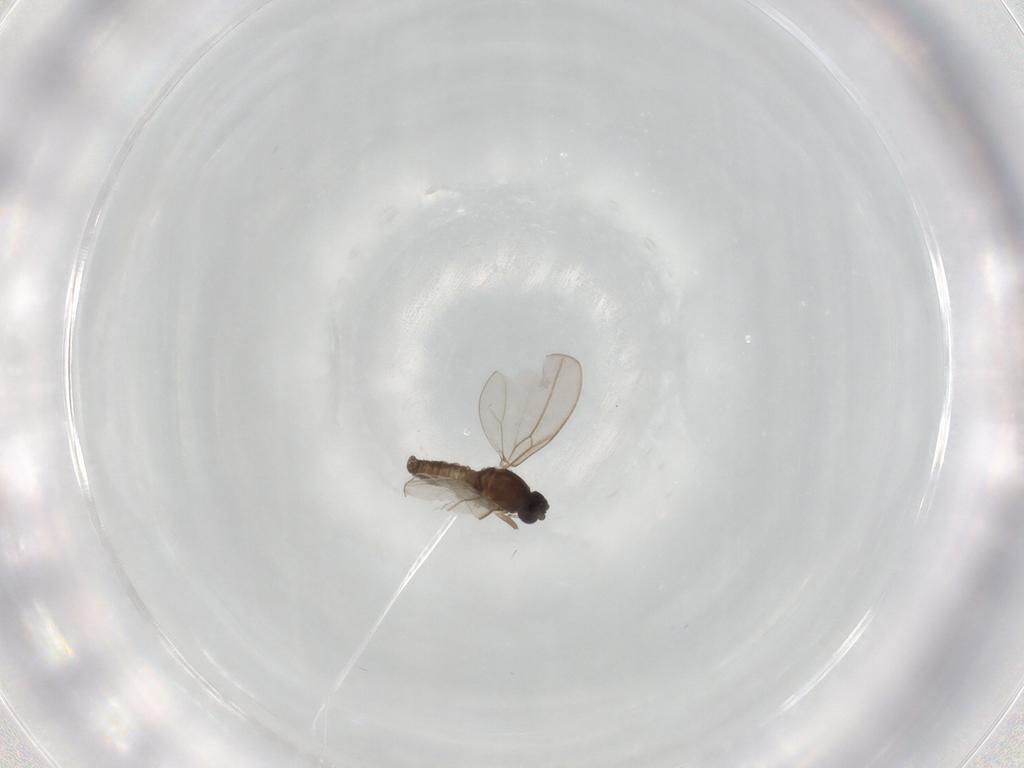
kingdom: Animalia
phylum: Arthropoda
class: Insecta
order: Diptera
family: Cecidomyiidae
